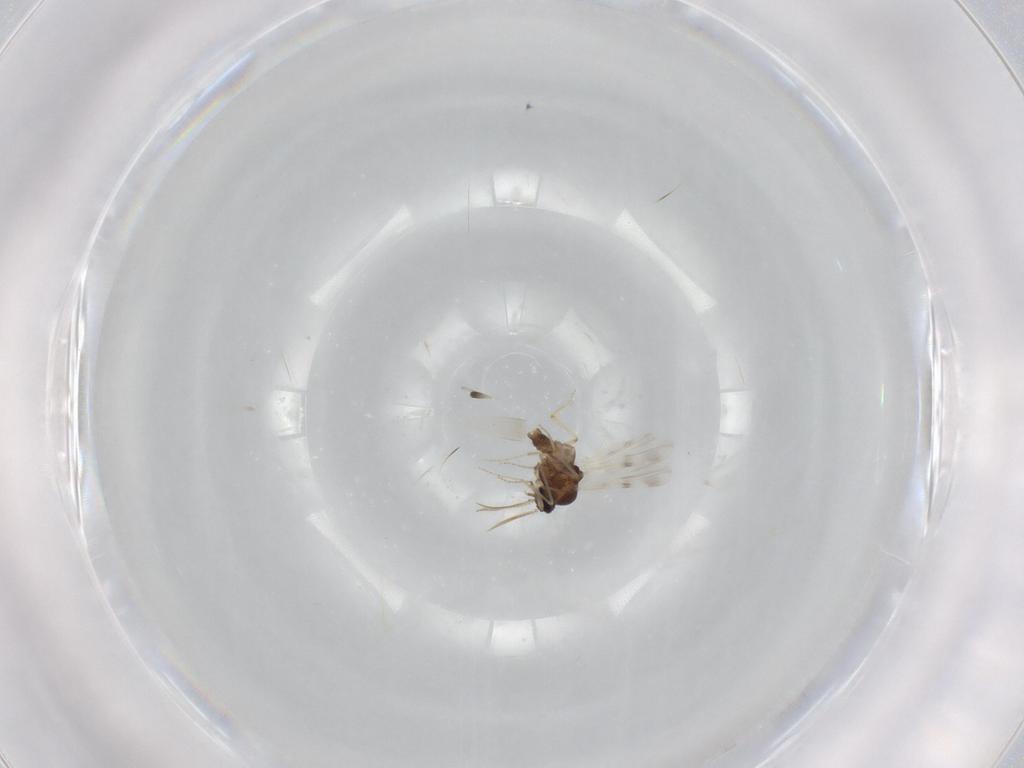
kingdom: Animalia
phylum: Arthropoda
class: Insecta
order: Diptera
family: Ceratopogonidae
